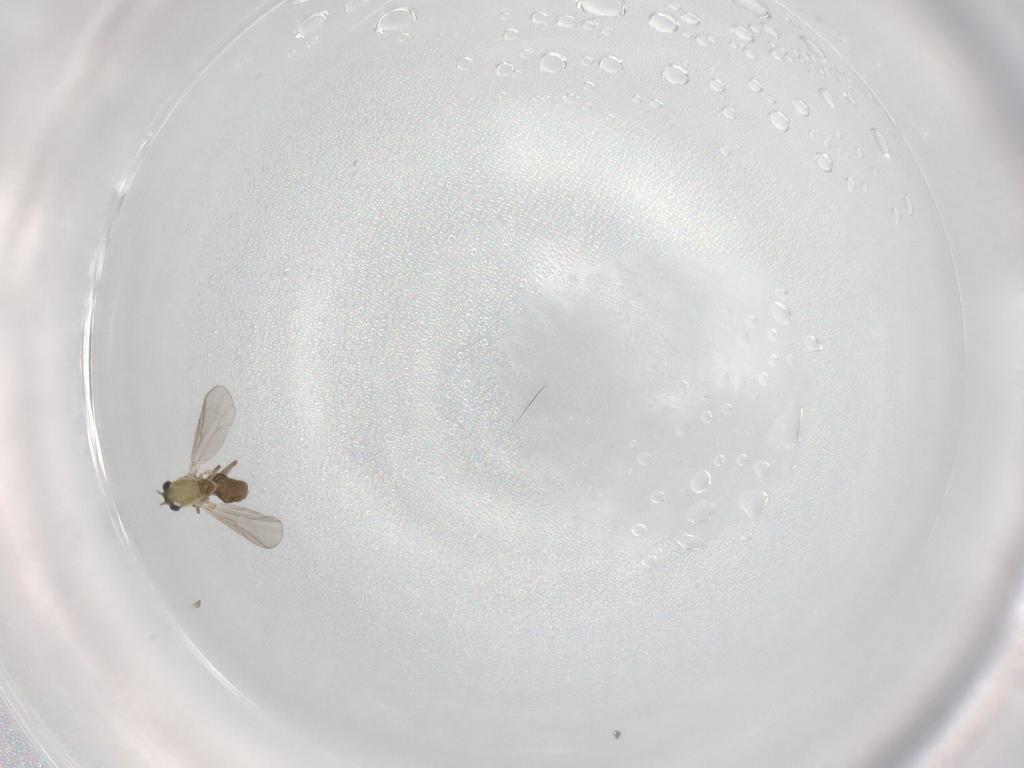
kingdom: Animalia
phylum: Arthropoda
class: Insecta
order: Diptera
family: Chironomidae
